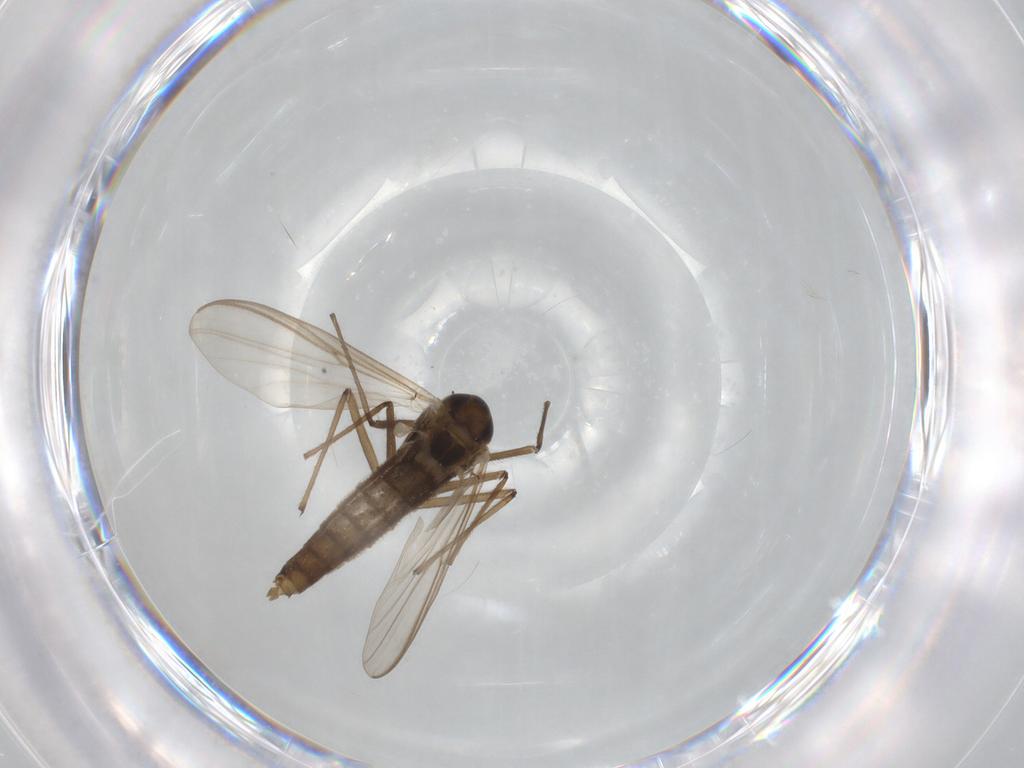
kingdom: Animalia
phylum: Arthropoda
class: Insecta
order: Diptera
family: Chironomidae
